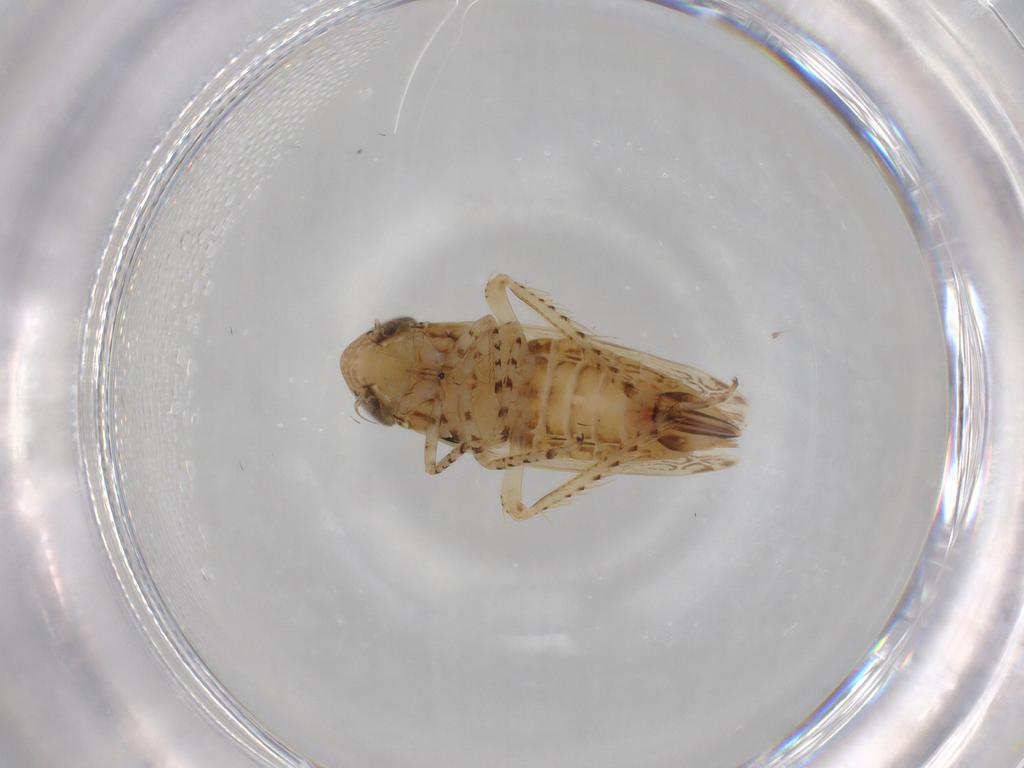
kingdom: Animalia
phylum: Arthropoda
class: Insecta
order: Hemiptera
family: Cicadellidae
